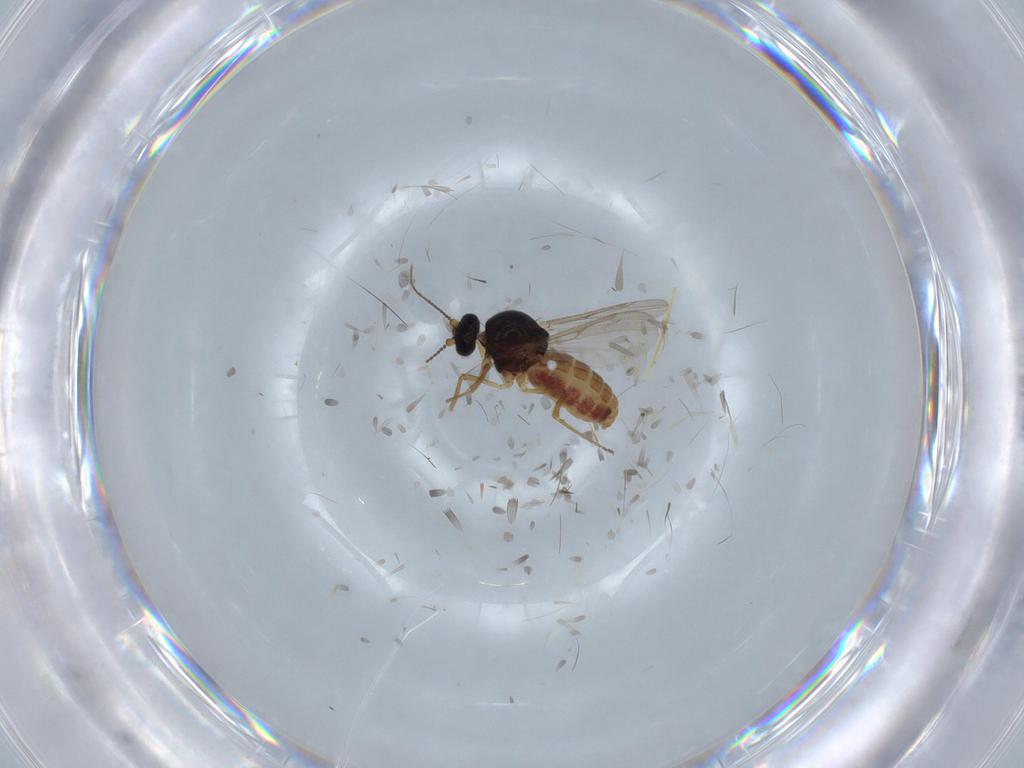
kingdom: Animalia
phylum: Arthropoda
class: Insecta
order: Diptera
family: Ceratopogonidae
